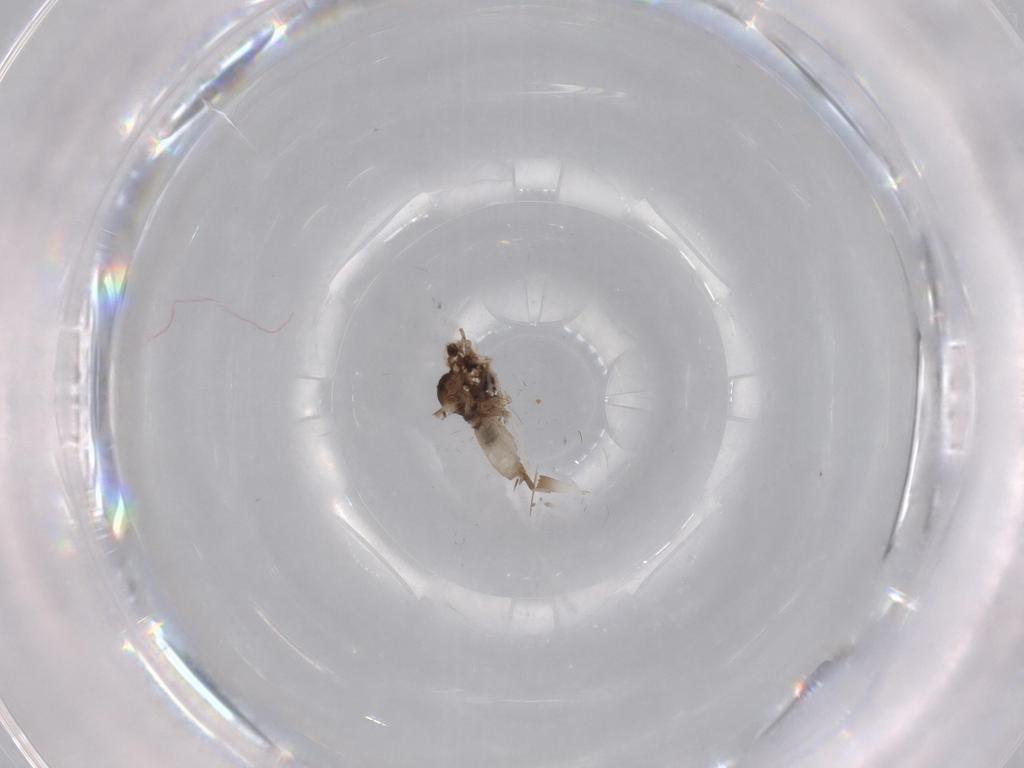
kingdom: Animalia
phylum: Arthropoda
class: Insecta
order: Diptera
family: Cecidomyiidae
